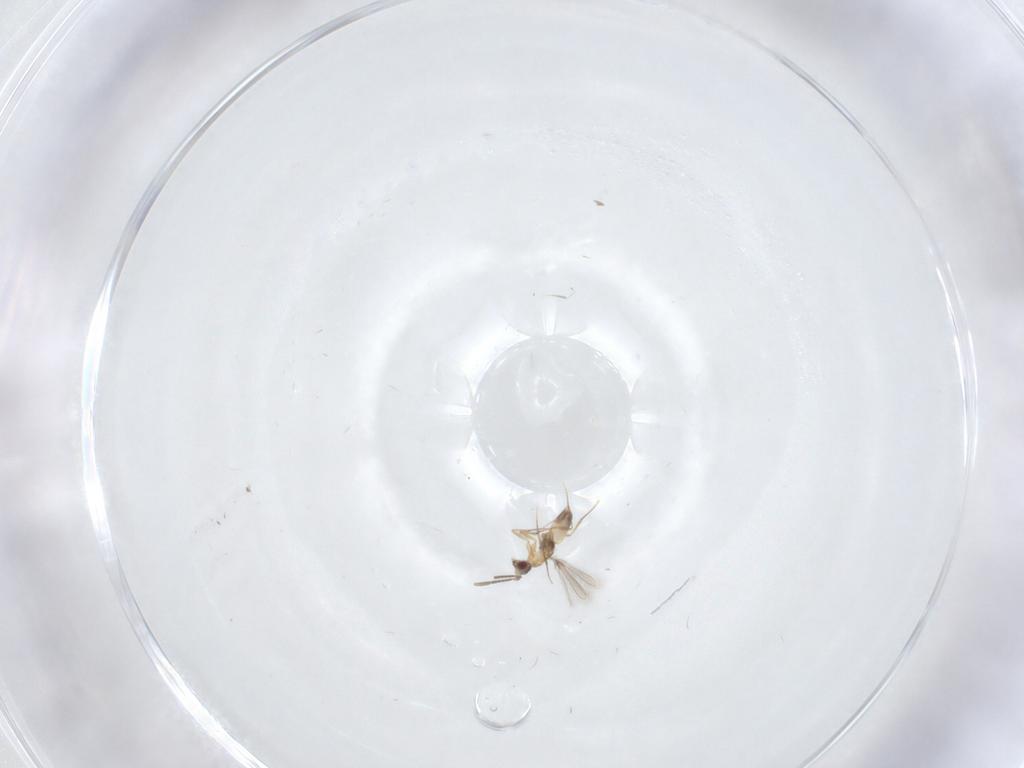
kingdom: Animalia
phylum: Arthropoda
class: Insecta
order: Hymenoptera
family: Mymaridae
